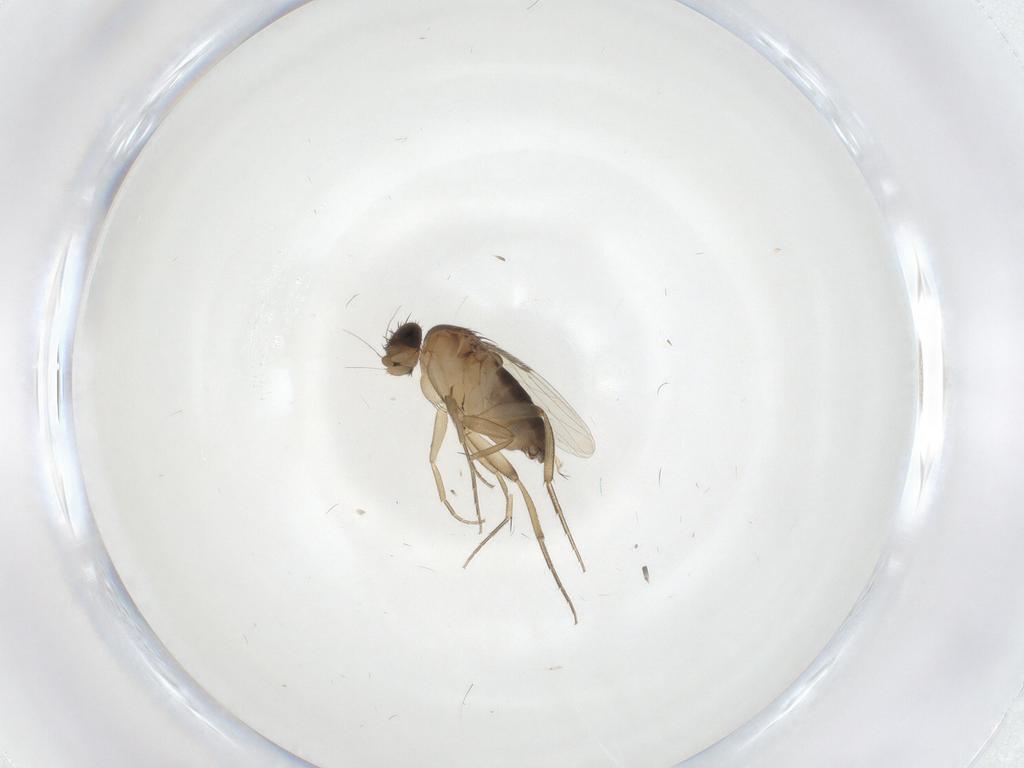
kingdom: Animalia
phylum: Arthropoda
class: Insecta
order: Diptera
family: Phoridae
